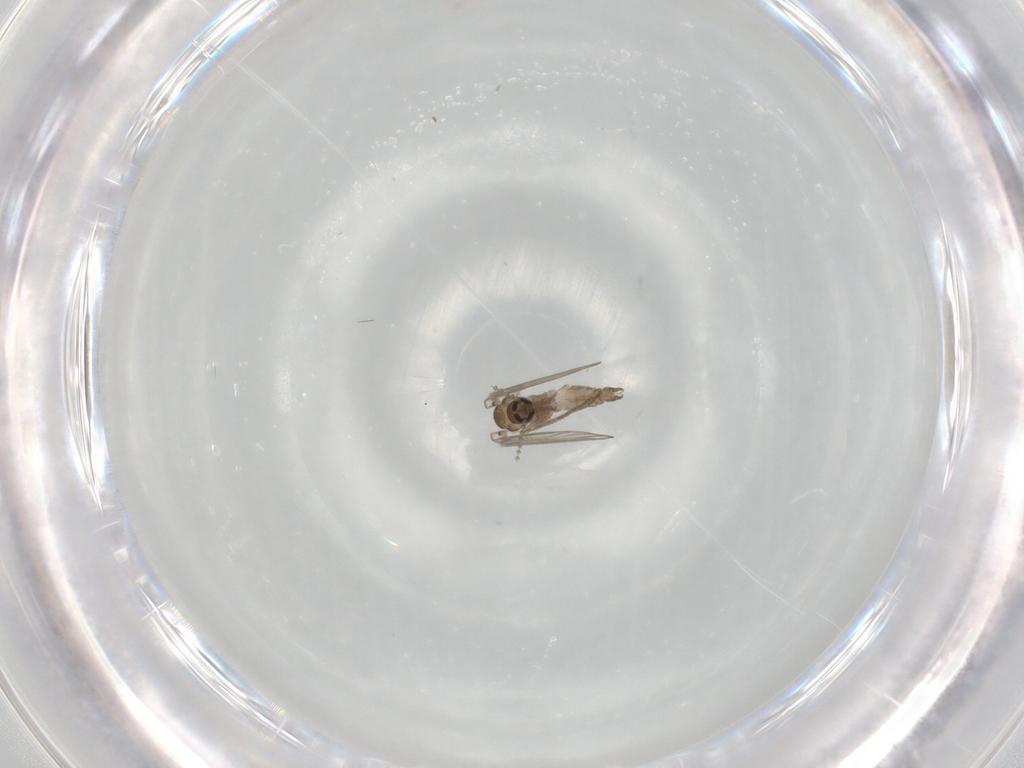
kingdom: Animalia
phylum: Arthropoda
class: Insecta
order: Diptera
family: Psychodidae
